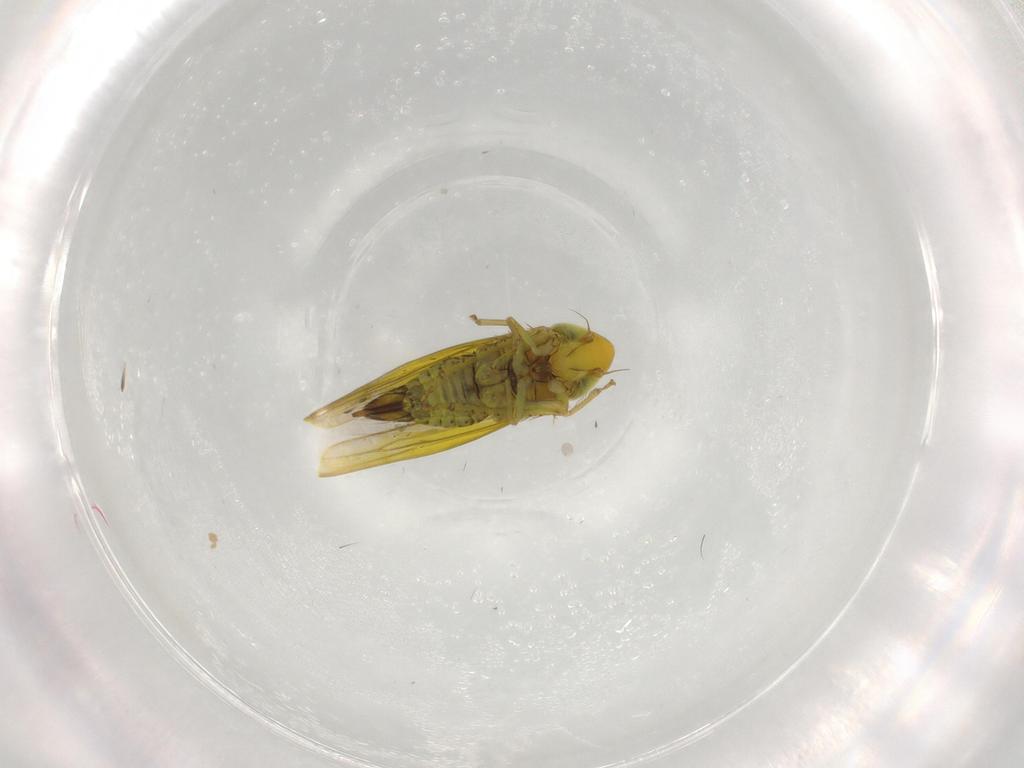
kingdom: Animalia
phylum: Arthropoda
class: Insecta
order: Hemiptera
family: Cicadellidae
